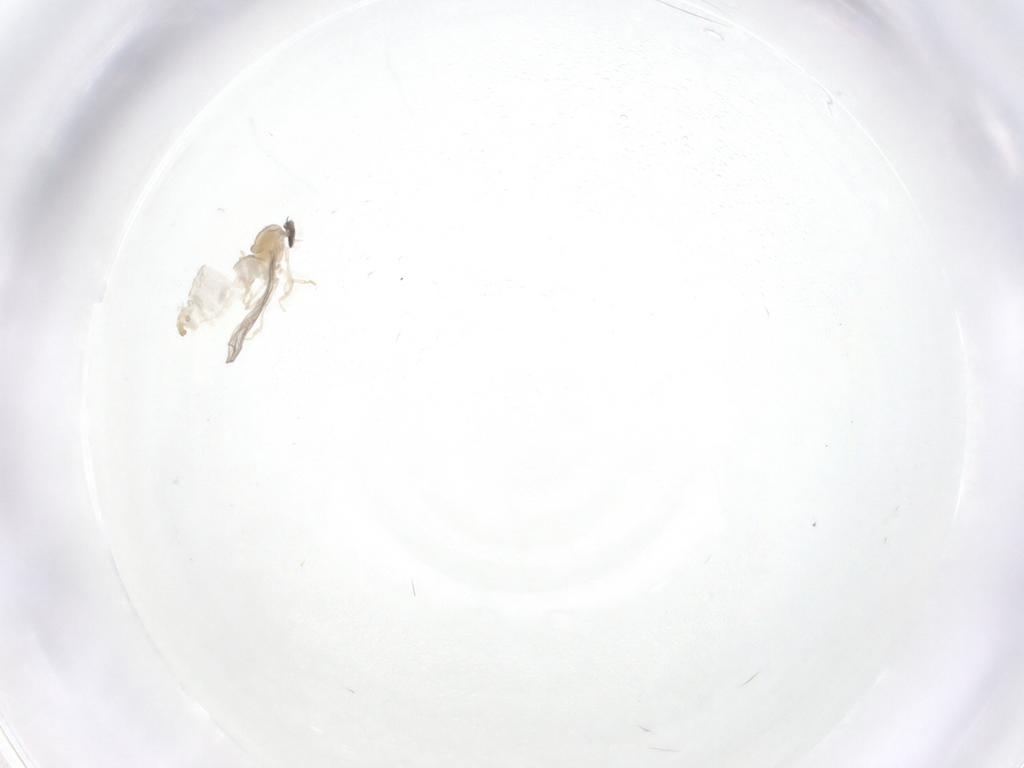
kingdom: Animalia
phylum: Arthropoda
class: Insecta
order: Diptera
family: Cecidomyiidae
